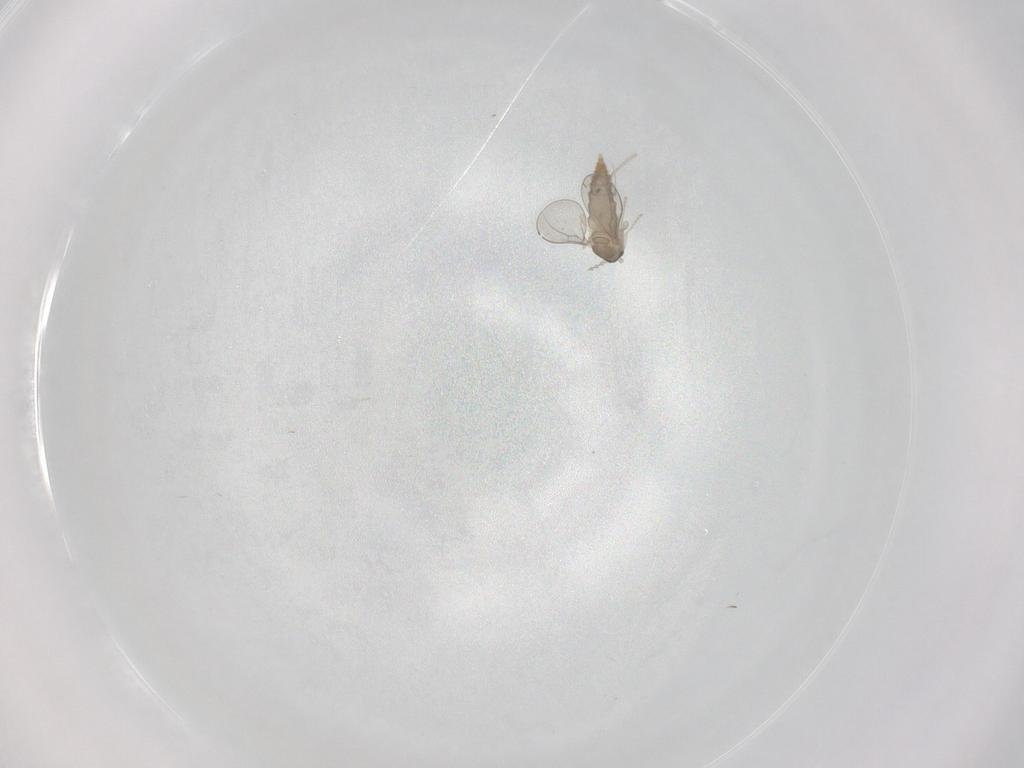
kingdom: Animalia
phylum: Arthropoda
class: Insecta
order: Diptera
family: Cecidomyiidae
